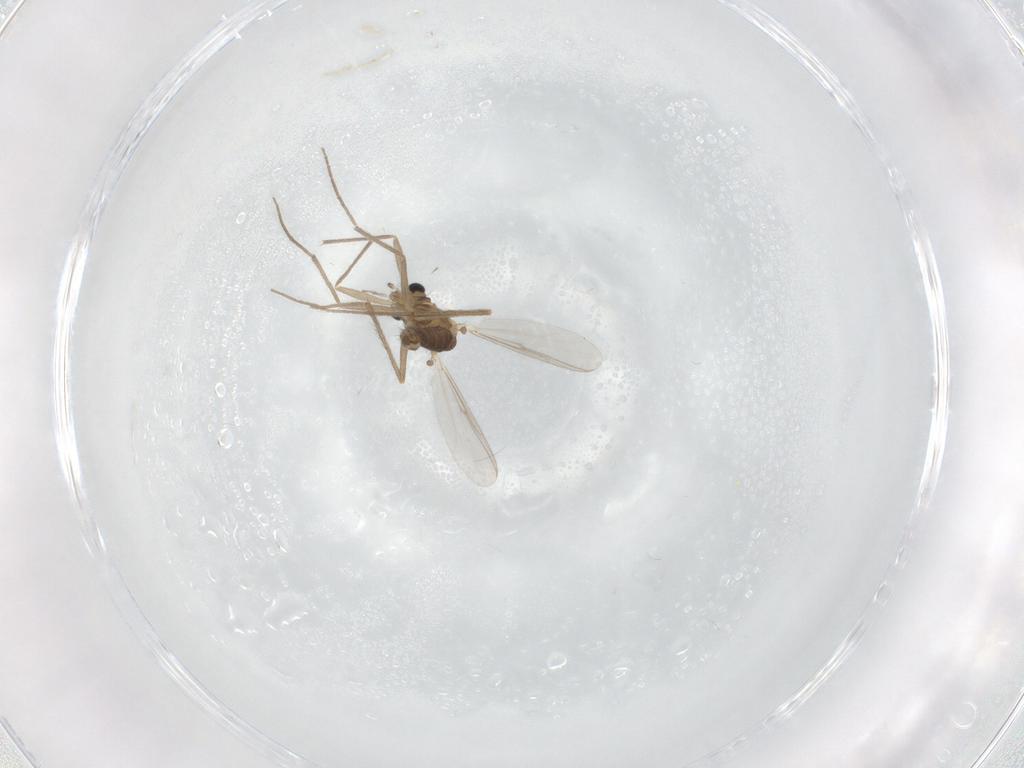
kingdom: Animalia
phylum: Arthropoda
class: Insecta
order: Diptera
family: Chironomidae
